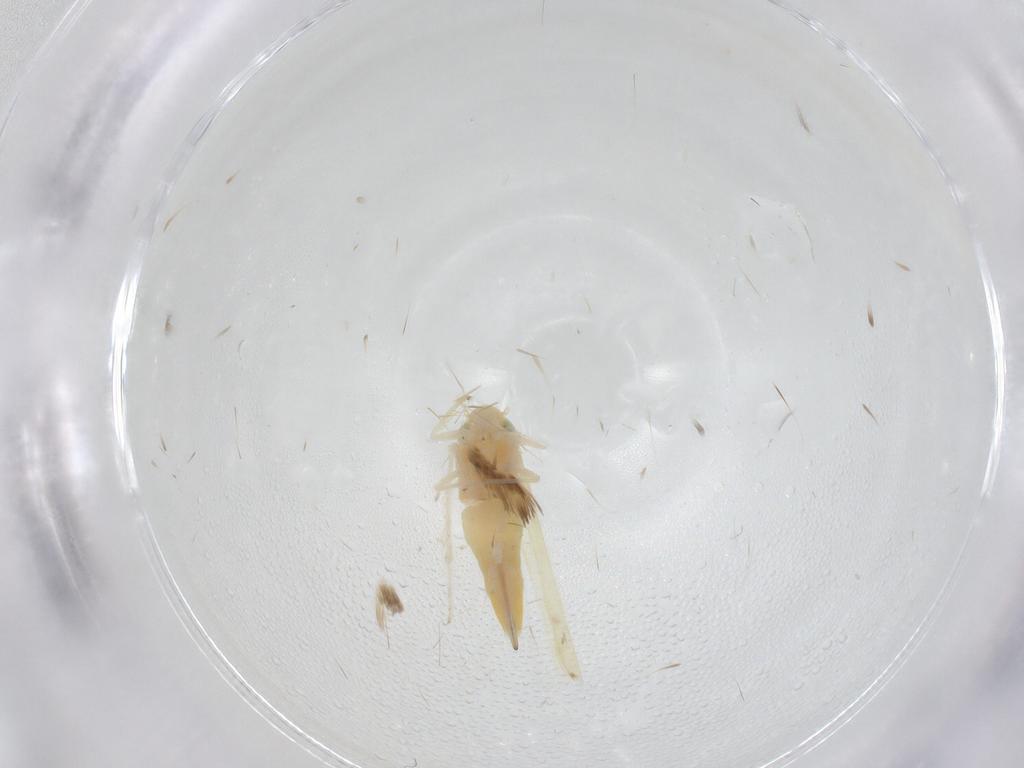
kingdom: Animalia
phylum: Arthropoda
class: Insecta
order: Hemiptera
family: Cicadellidae
